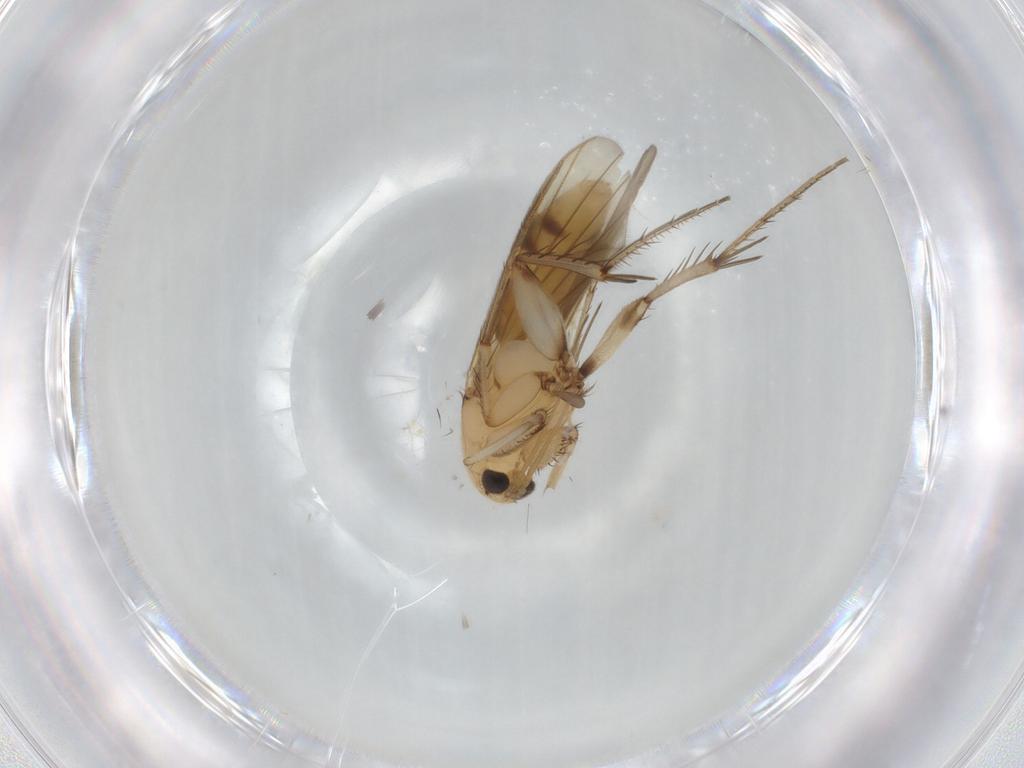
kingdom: Animalia
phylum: Arthropoda
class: Insecta
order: Diptera
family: Mycetophilidae
